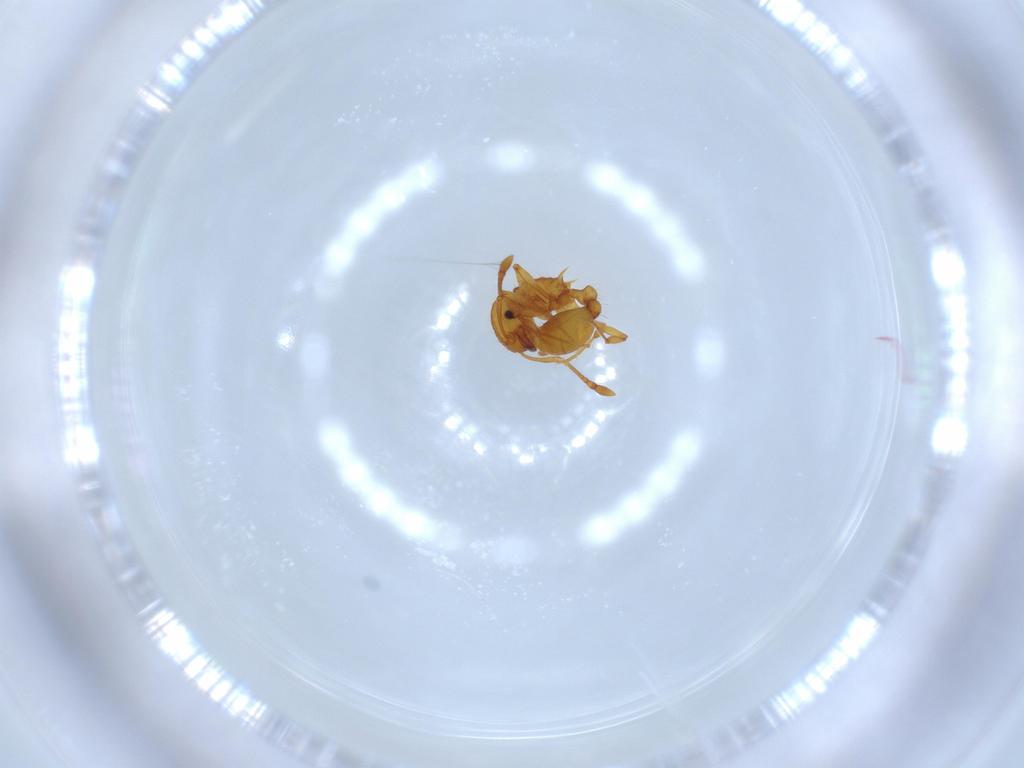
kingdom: Animalia
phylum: Arthropoda
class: Insecta
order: Hymenoptera
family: Formicidae
